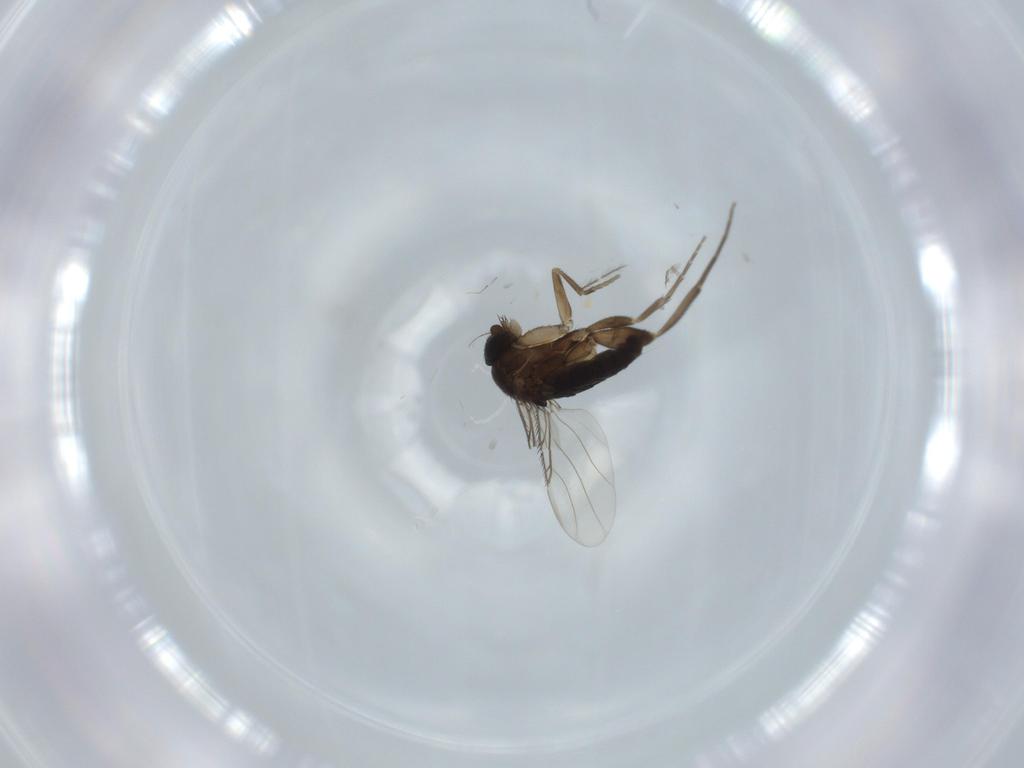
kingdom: Animalia
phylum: Arthropoda
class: Insecta
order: Diptera
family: Phoridae
